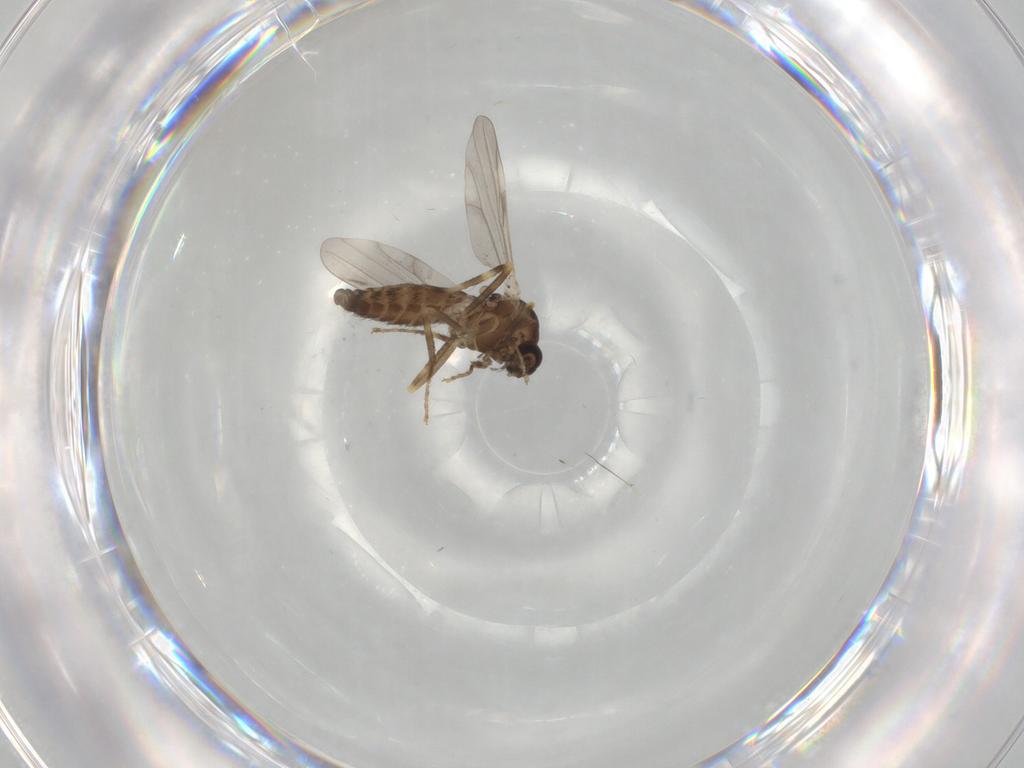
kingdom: Animalia
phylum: Arthropoda
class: Insecta
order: Diptera
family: Ceratopogonidae
